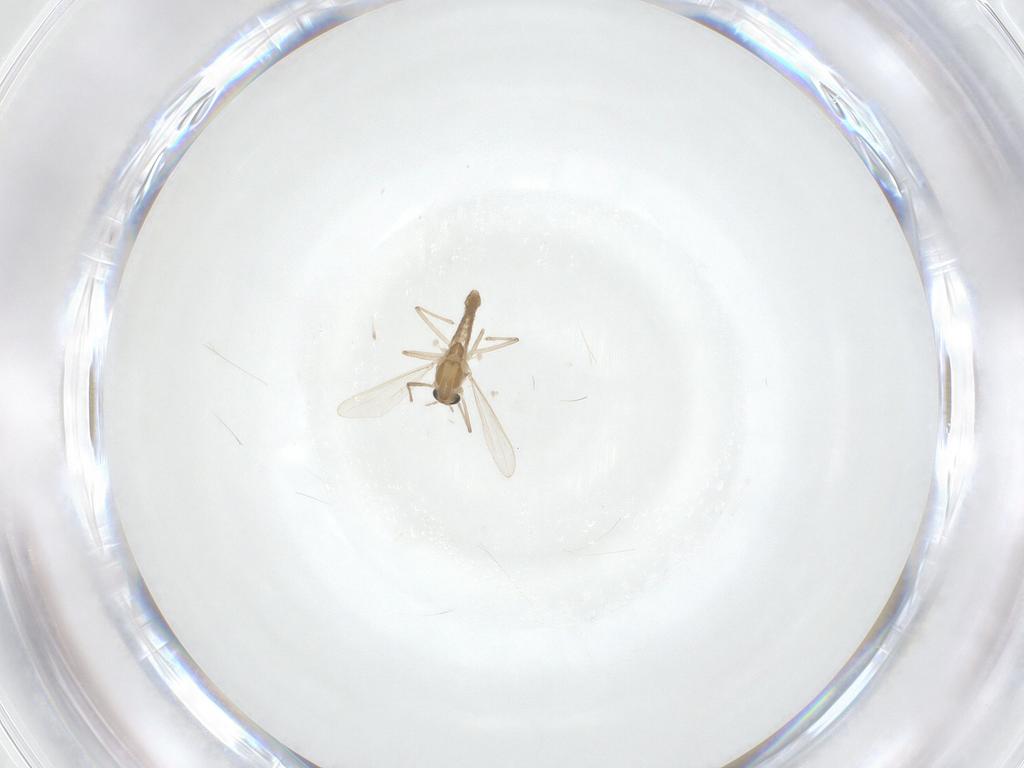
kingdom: Animalia
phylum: Arthropoda
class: Insecta
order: Diptera
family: Chironomidae
